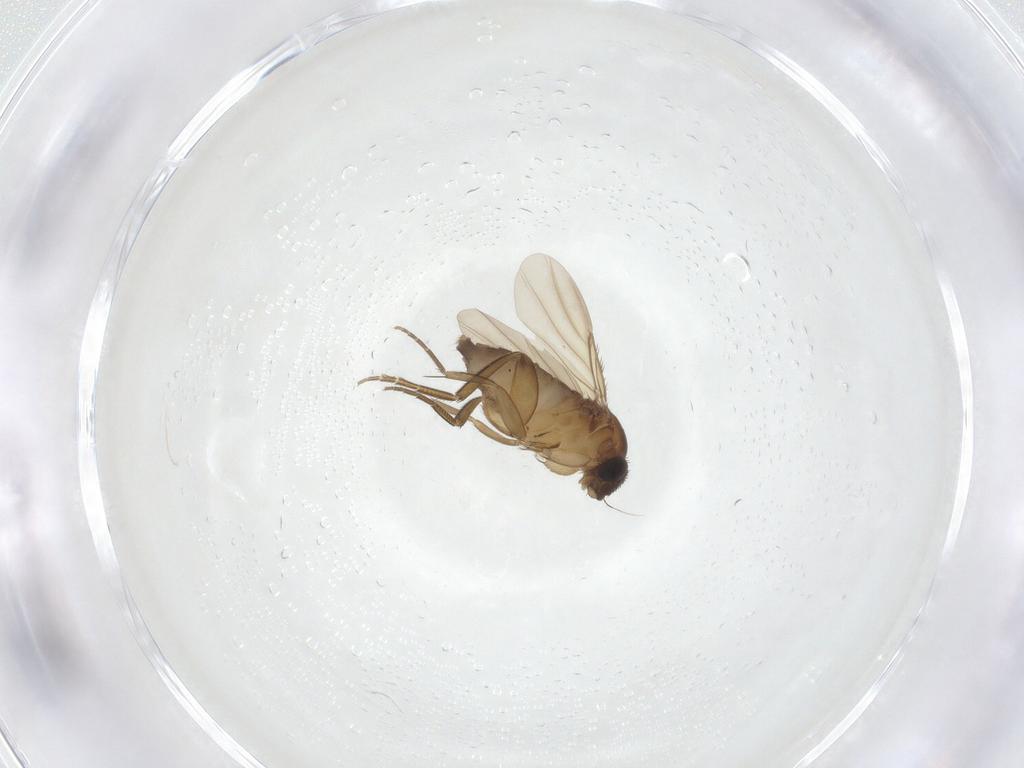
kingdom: Animalia
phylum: Arthropoda
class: Insecta
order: Diptera
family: Phoridae
